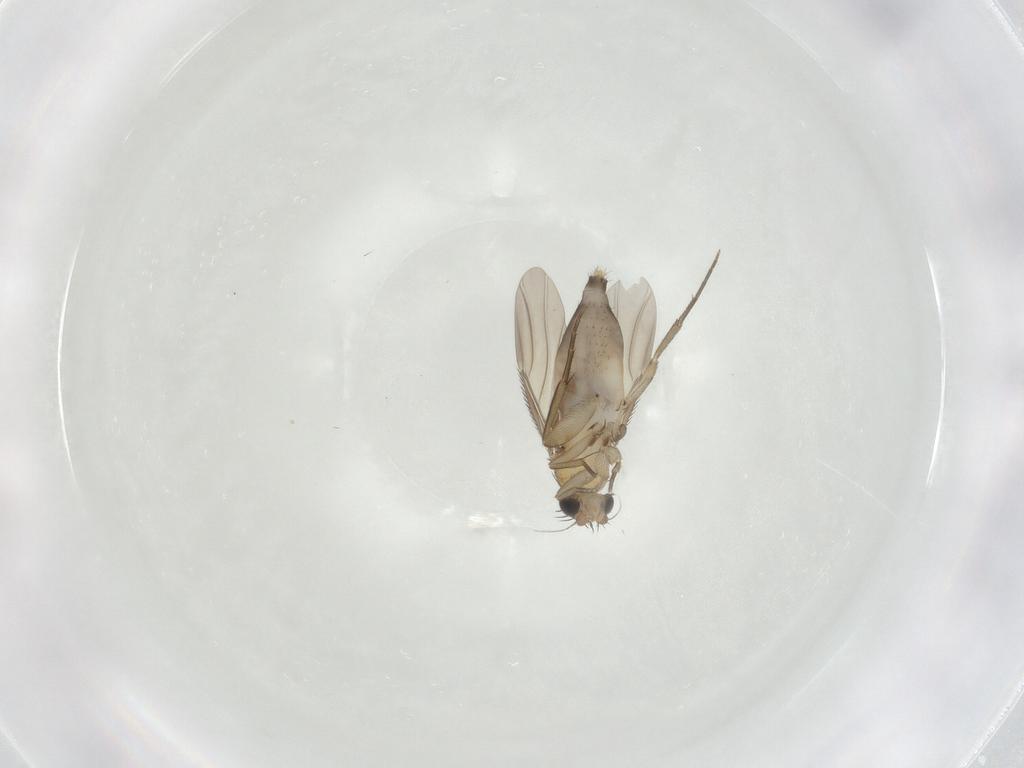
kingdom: Animalia
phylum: Arthropoda
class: Insecta
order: Diptera
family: Phoridae
